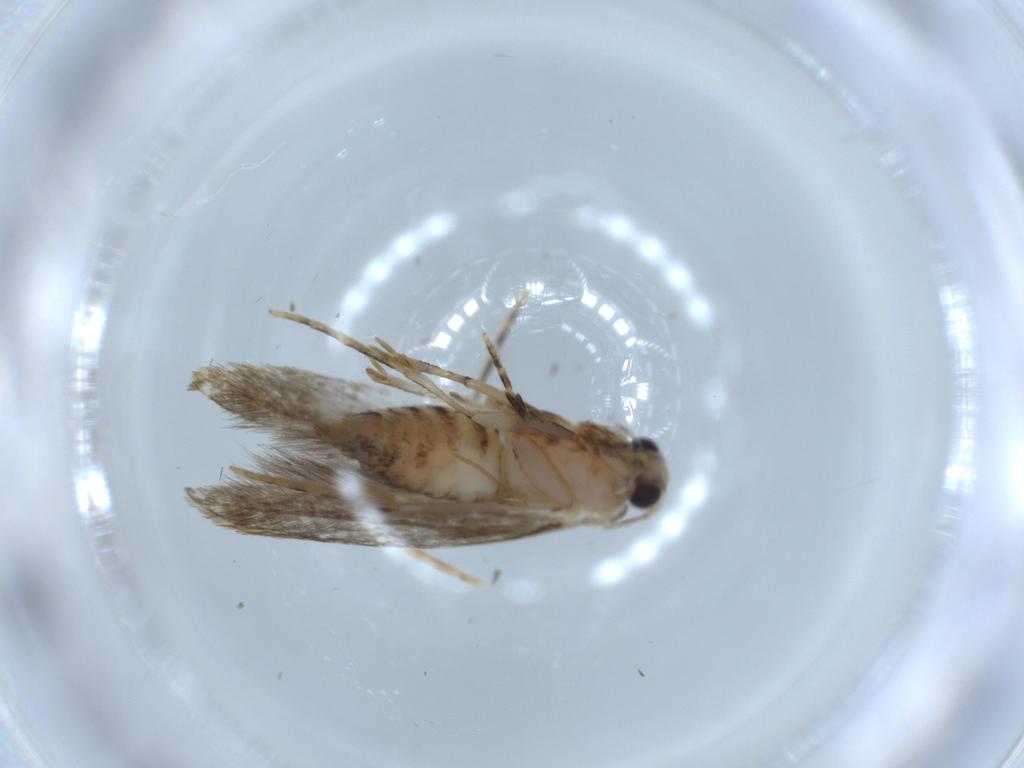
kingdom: Animalia
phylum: Arthropoda
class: Insecta
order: Lepidoptera
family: Tineidae
